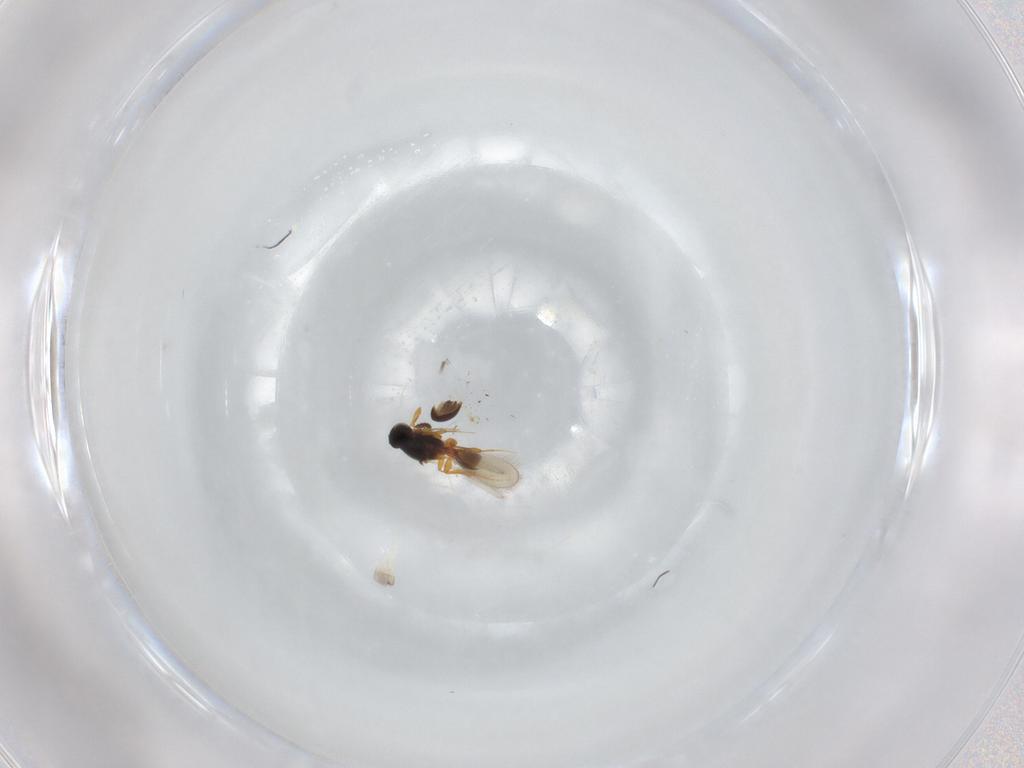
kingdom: Animalia
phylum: Arthropoda
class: Insecta
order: Hymenoptera
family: Platygastridae
